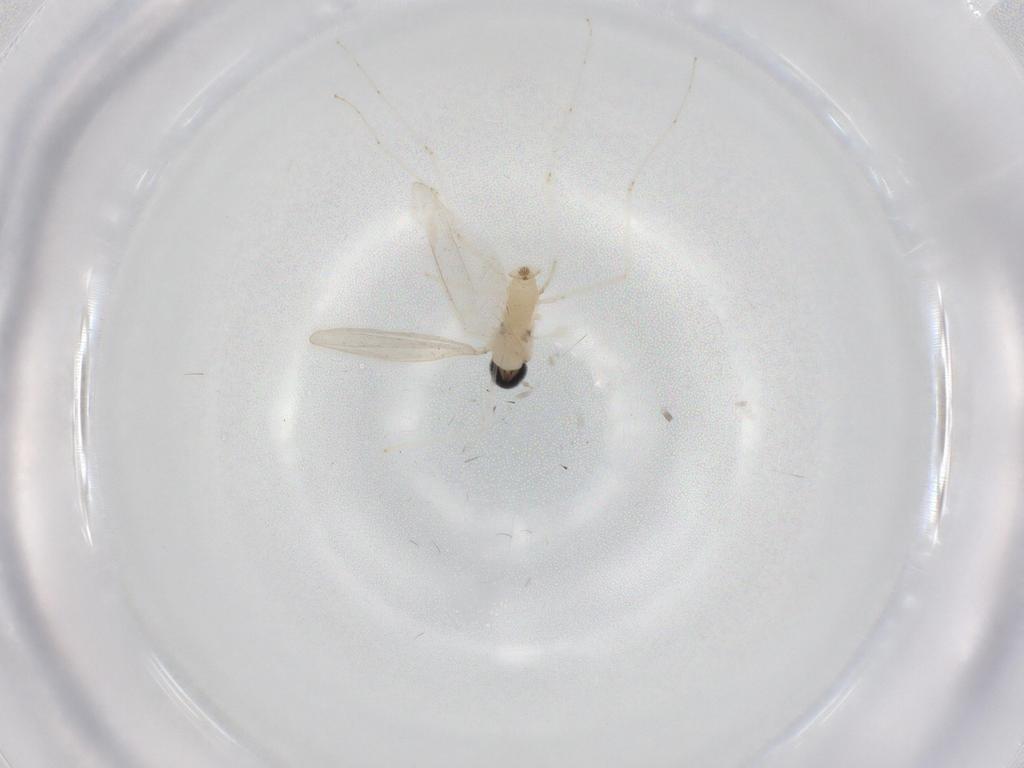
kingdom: Animalia
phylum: Arthropoda
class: Insecta
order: Diptera
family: Cecidomyiidae
